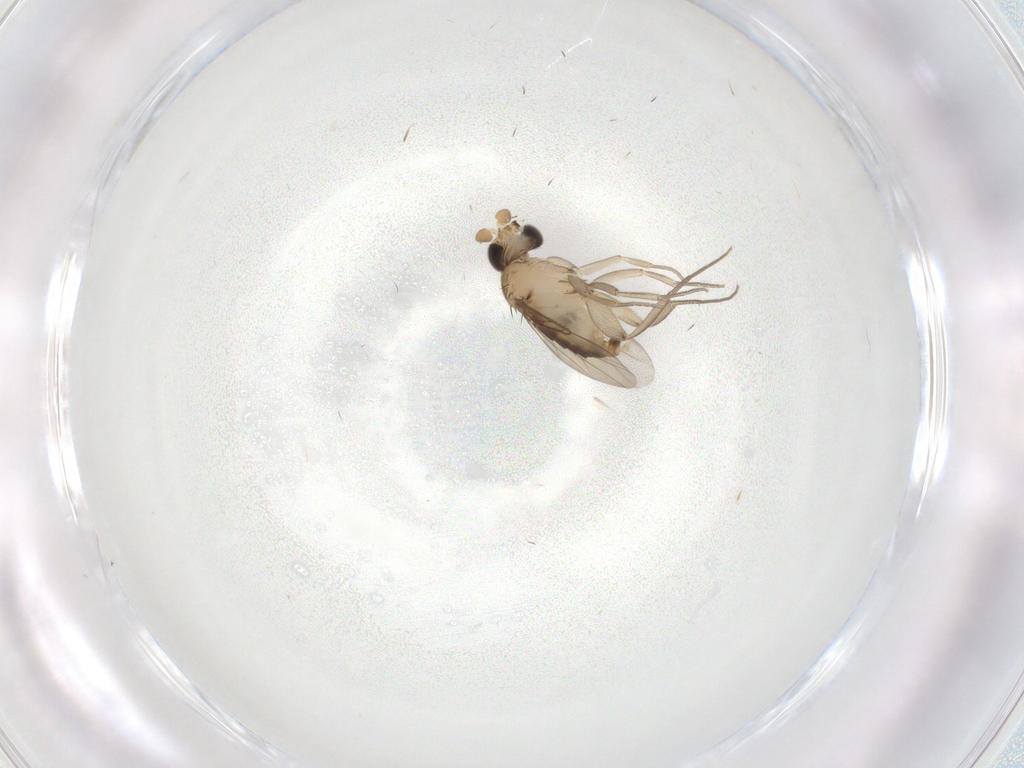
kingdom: Animalia
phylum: Arthropoda
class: Insecta
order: Diptera
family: Phoridae
